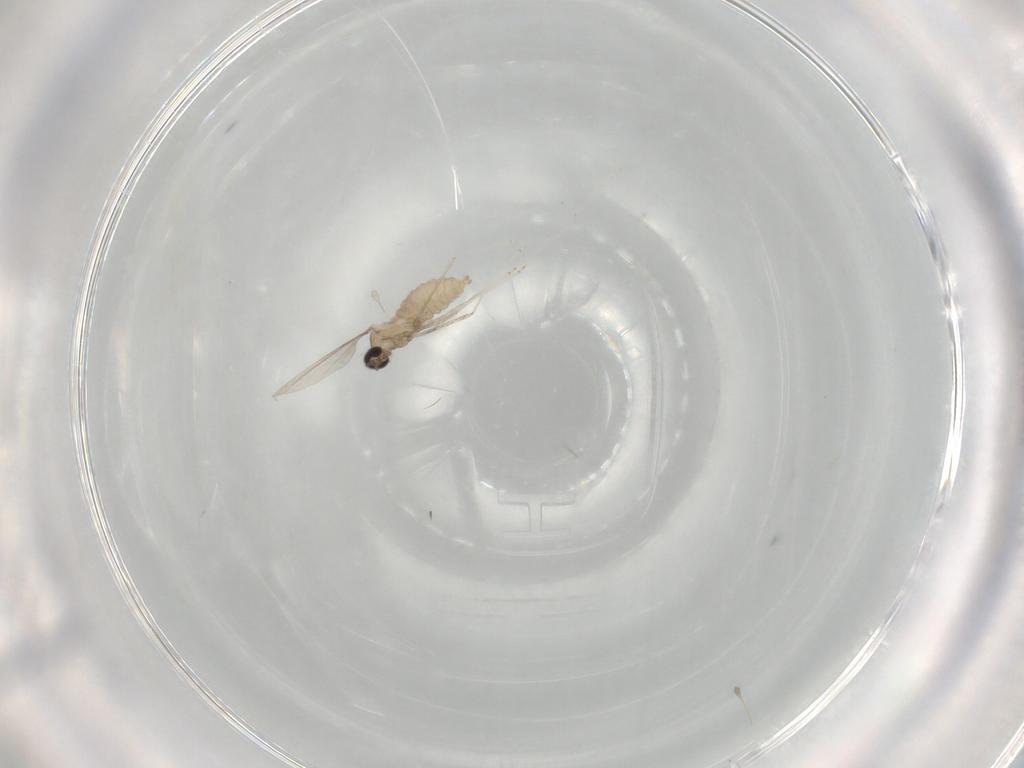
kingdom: Animalia
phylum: Arthropoda
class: Insecta
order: Diptera
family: Cecidomyiidae
